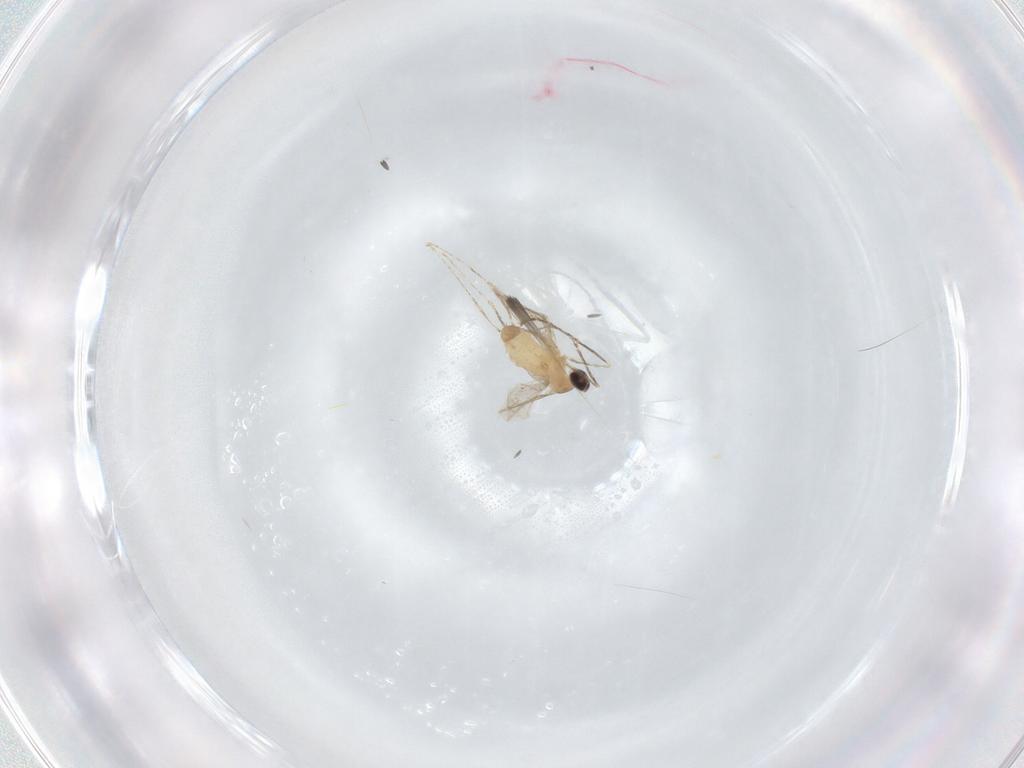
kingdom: Animalia
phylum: Arthropoda
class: Insecta
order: Diptera
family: Cecidomyiidae
